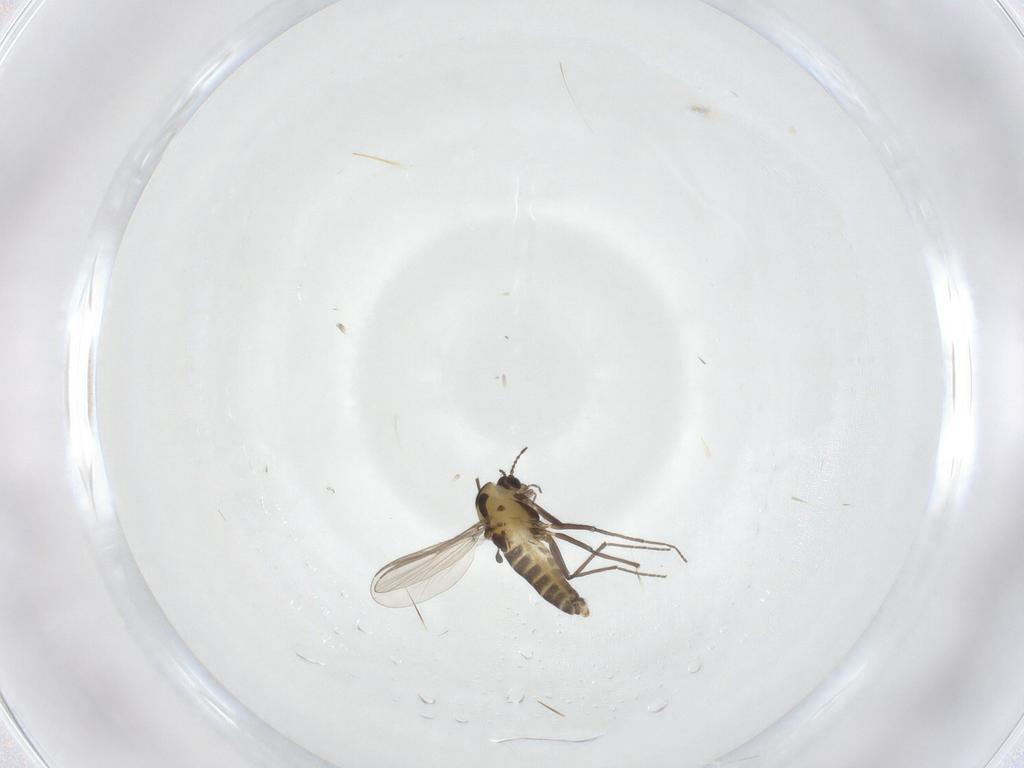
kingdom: Animalia
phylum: Arthropoda
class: Insecta
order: Diptera
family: Chironomidae
